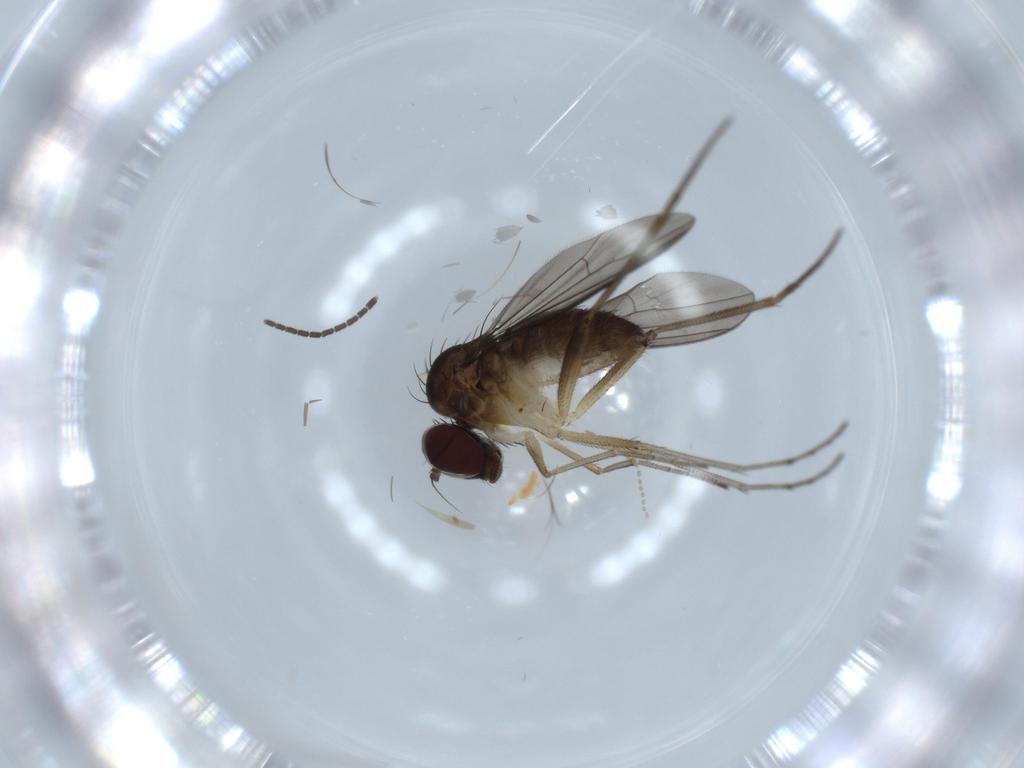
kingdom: Animalia
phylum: Arthropoda
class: Insecta
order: Diptera
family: Dolichopodidae
